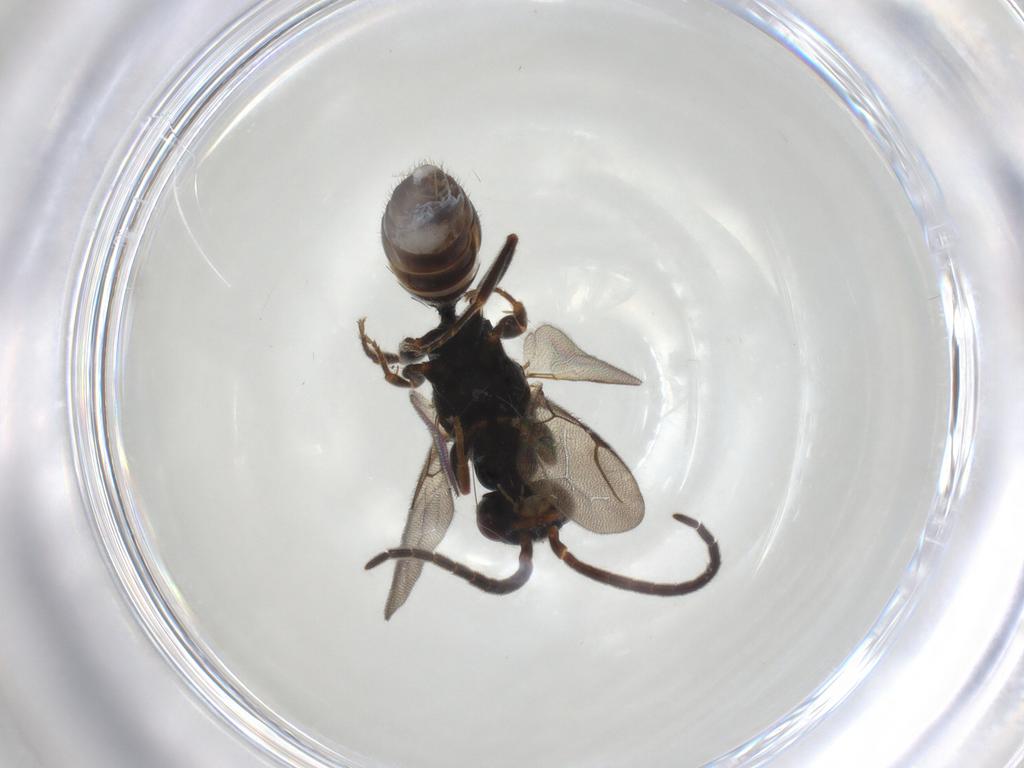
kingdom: Animalia
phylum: Arthropoda
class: Insecta
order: Hymenoptera
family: Bethylidae
